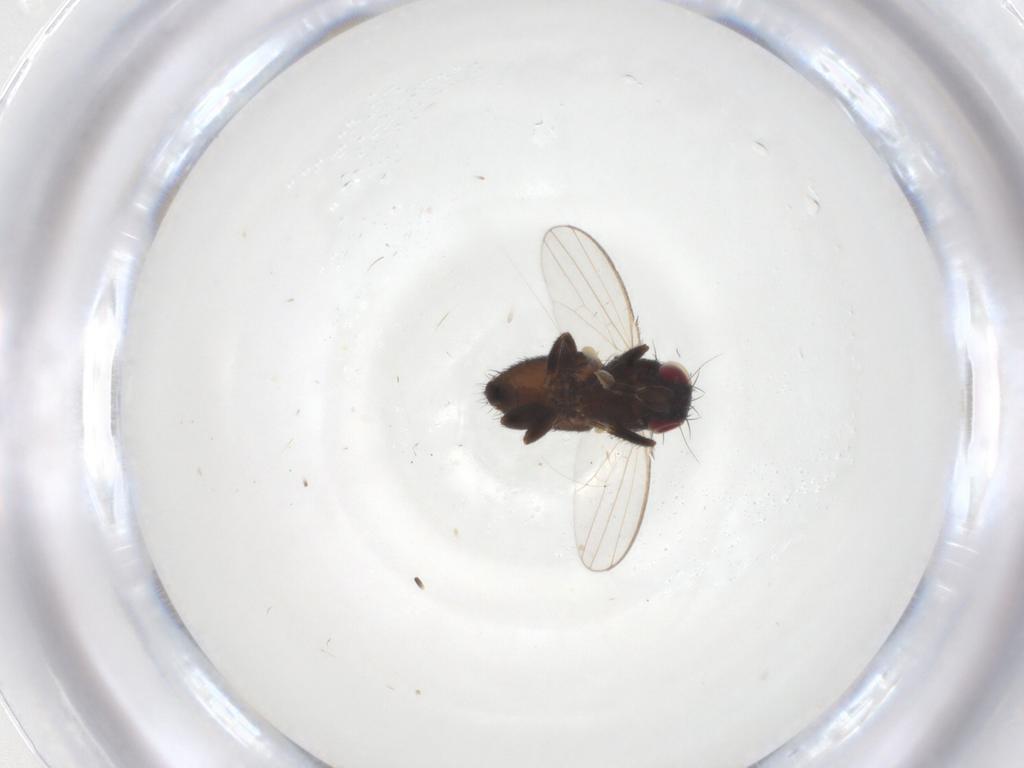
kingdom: Animalia
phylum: Arthropoda
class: Insecta
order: Diptera
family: Milichiidae
